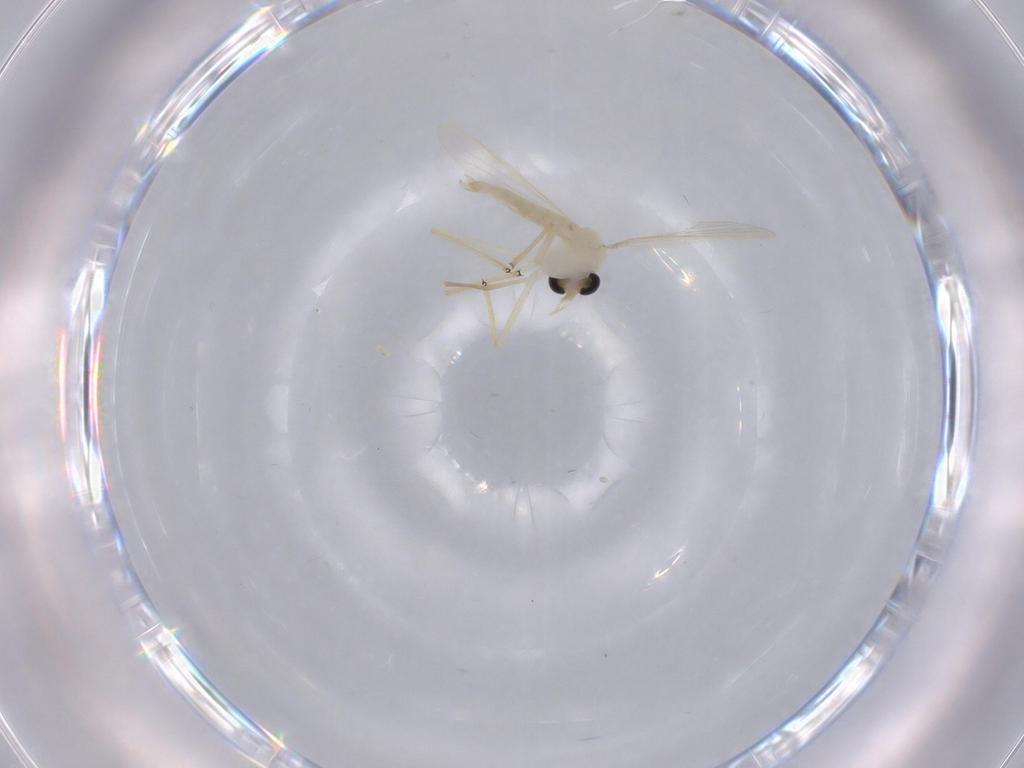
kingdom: Animalia
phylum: Arthropoda
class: Insecta
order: Diptera
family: Chironomidae
